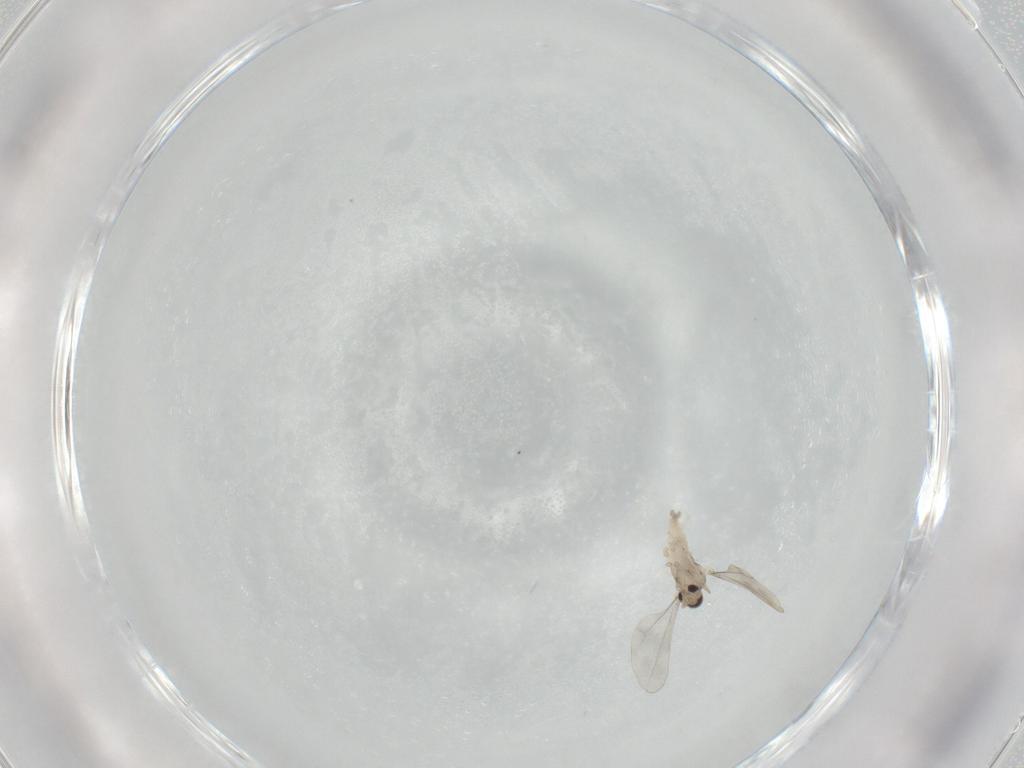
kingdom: Animalia
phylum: Arthropoda
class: Insecta
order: Diptera
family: Cecidomyiidae
